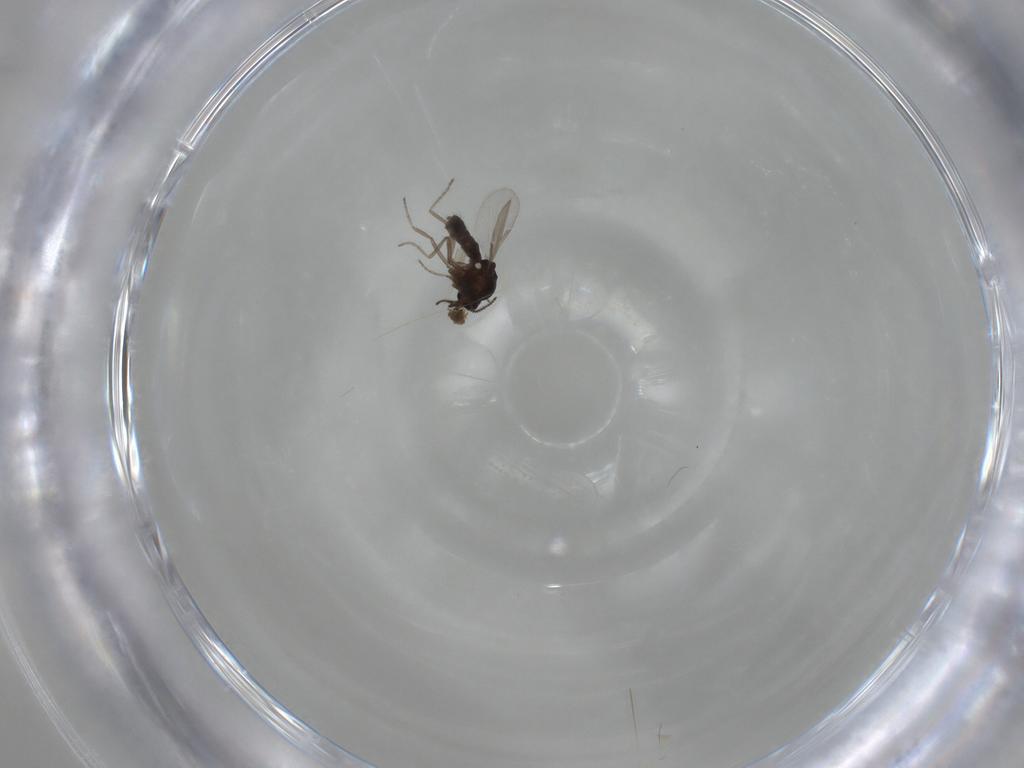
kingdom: Animalia
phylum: Arthropoda
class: Insecta
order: Diptera
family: Ceratopogonidae
